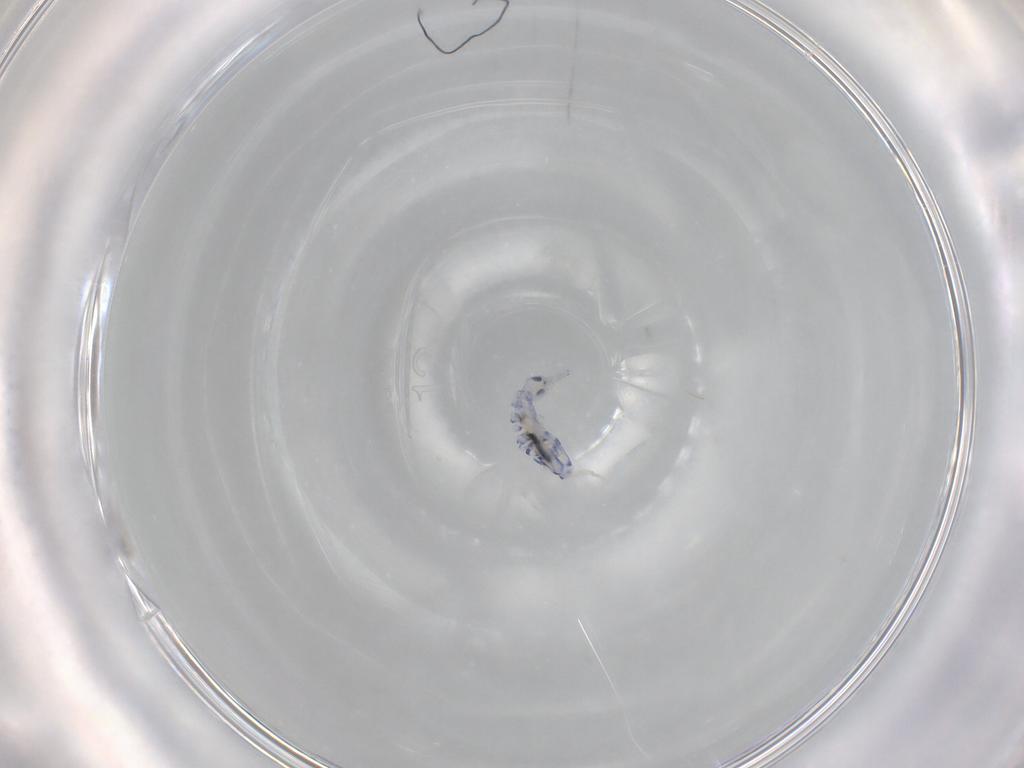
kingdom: Animalia
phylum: Arthropoda
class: Collembola
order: Entomobryomorpha
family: Entomobryidae
